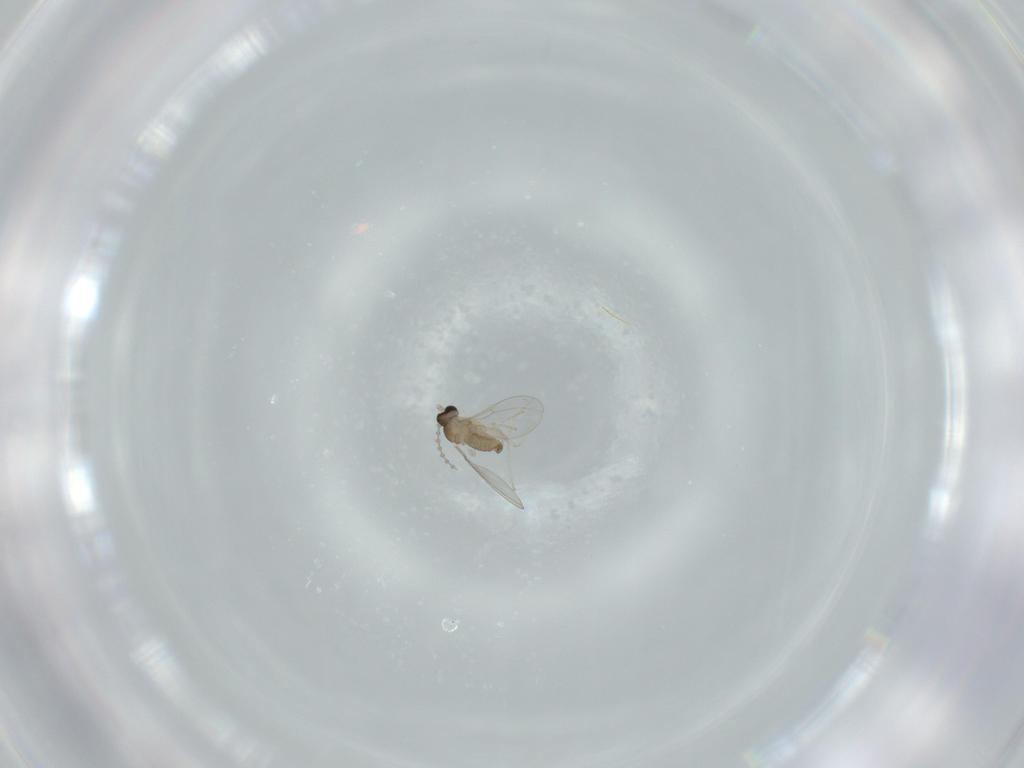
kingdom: Animalia
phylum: Arthropoda
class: Insecta
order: Diptera
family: Cecidomyiidae
